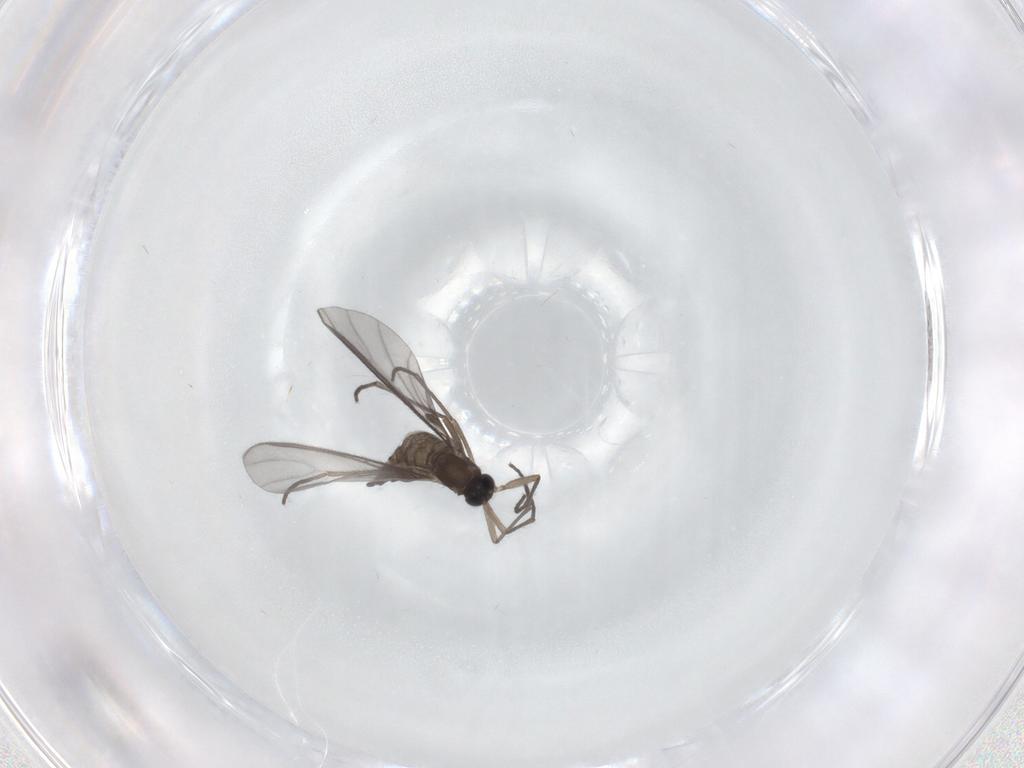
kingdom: Animalia
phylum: Arthropoda
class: Insecta
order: Diptera
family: Sciaridae
